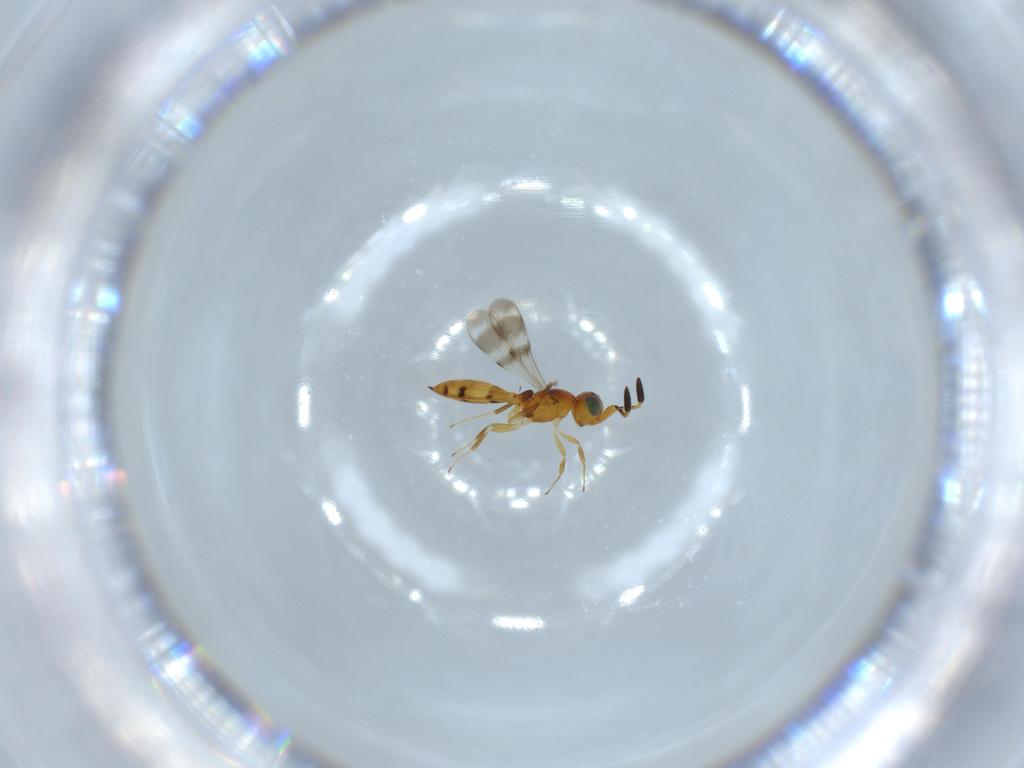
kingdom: Animalia
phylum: Arthropoda
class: Insecta
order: Hymenoptera
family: Scelionidae
